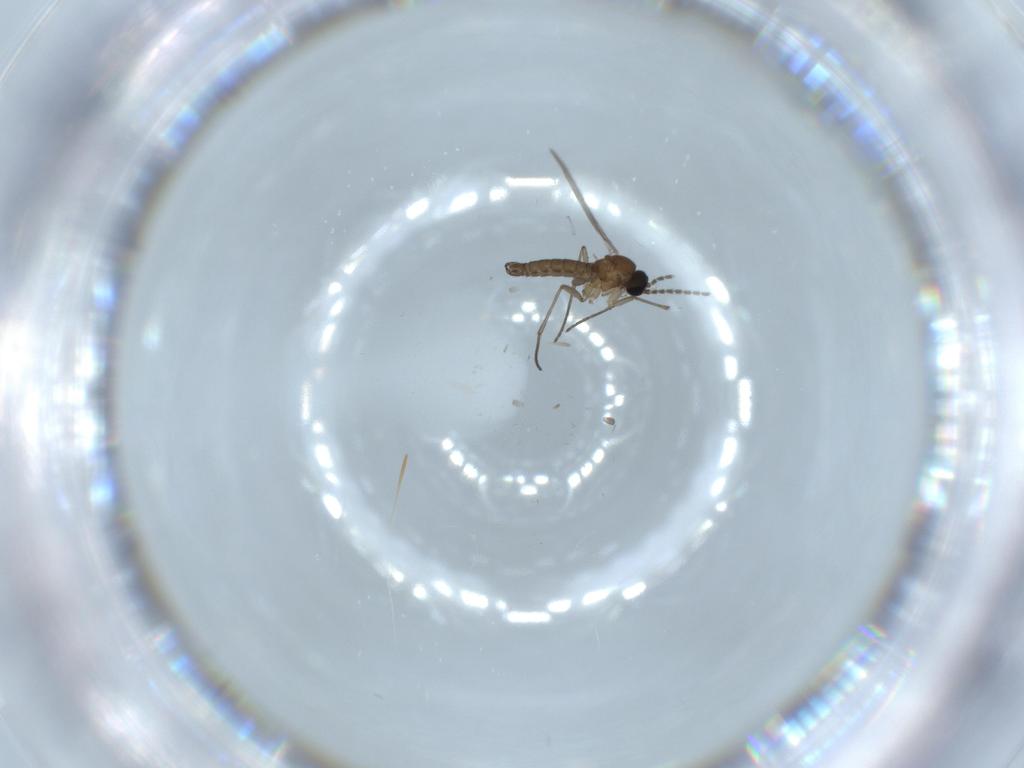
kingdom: Animalia
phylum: Arthropoda
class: Insecta
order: Diptera
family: Sciaridae
